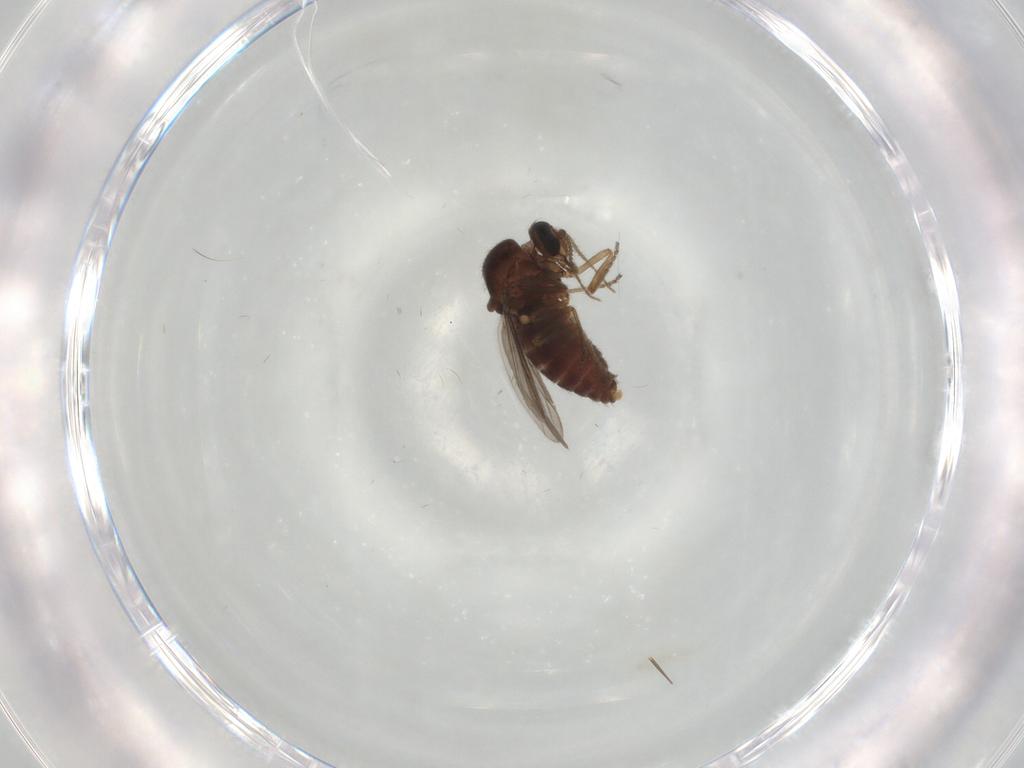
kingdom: Animalia
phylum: Arthropoda
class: Insecta
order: Diptera
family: Ceratopogonidae
